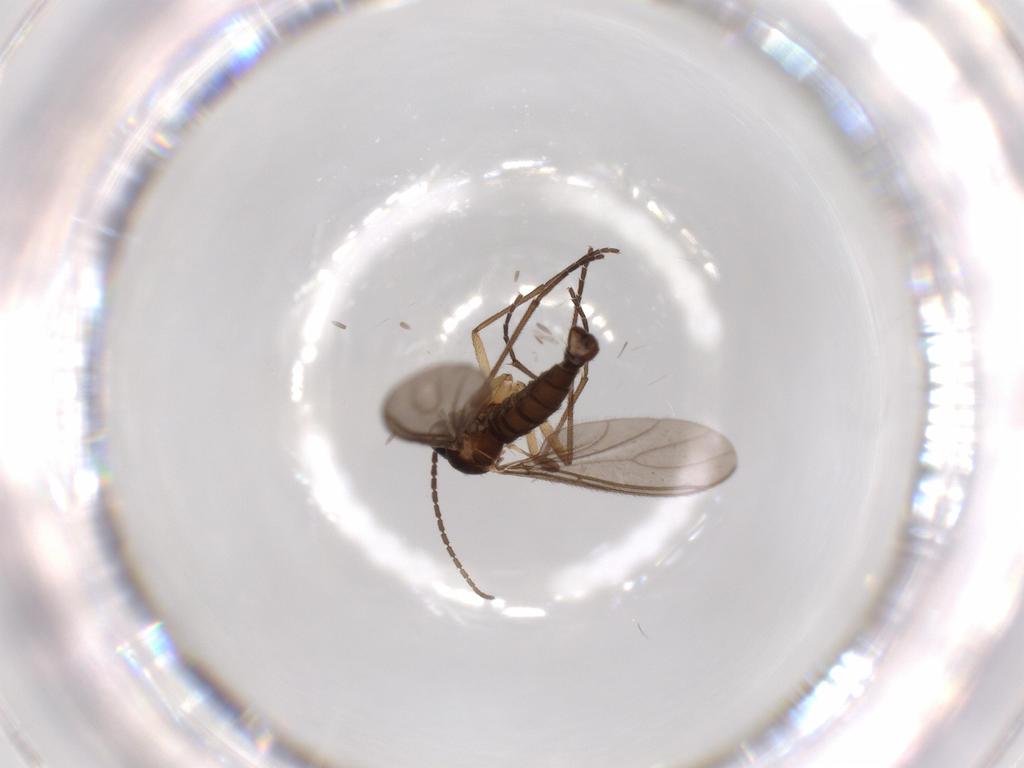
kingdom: Animalia
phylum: Arthropoda
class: Insecta
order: Diptera
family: Sciaridae
